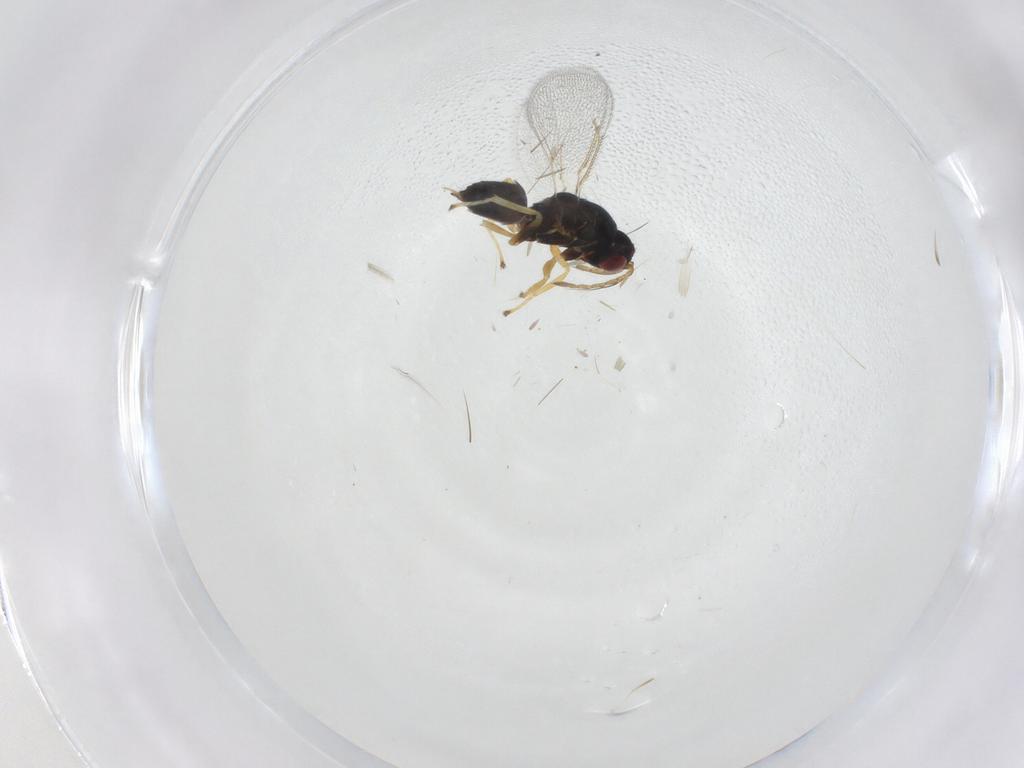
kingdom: Animalia
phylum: Arthropoda
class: Insecta
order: Hymenoptera
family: Eulophidae
